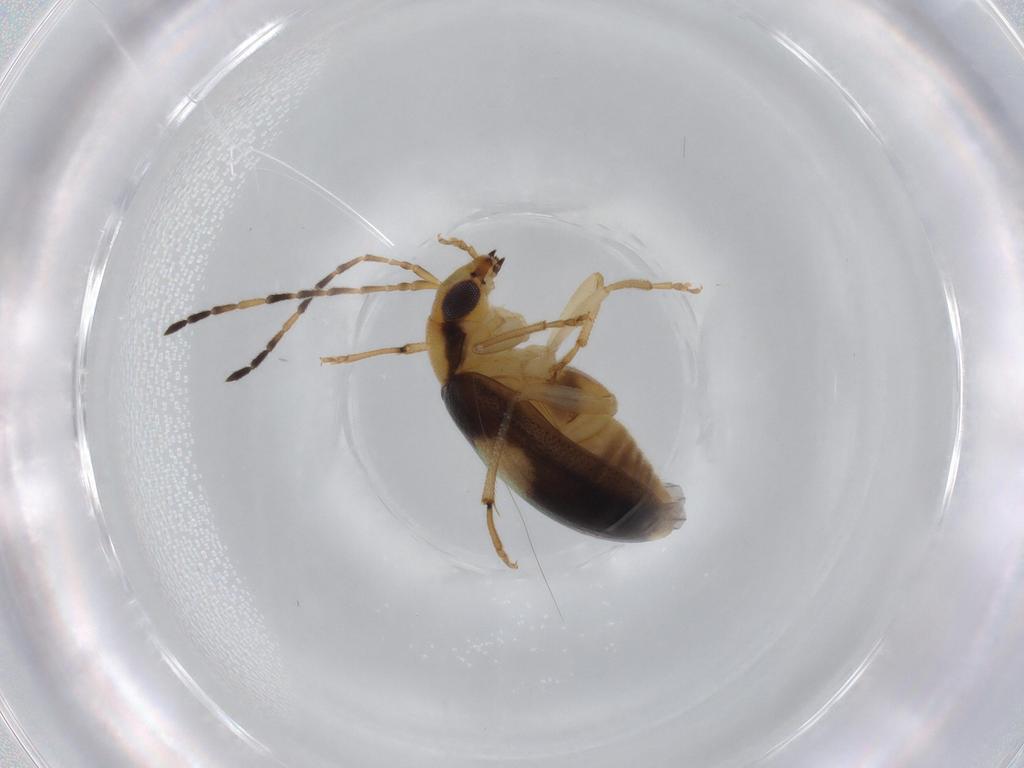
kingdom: Animalia
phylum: Arthropoda
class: Insecta
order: Coleoptera
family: Chrysomelidae
